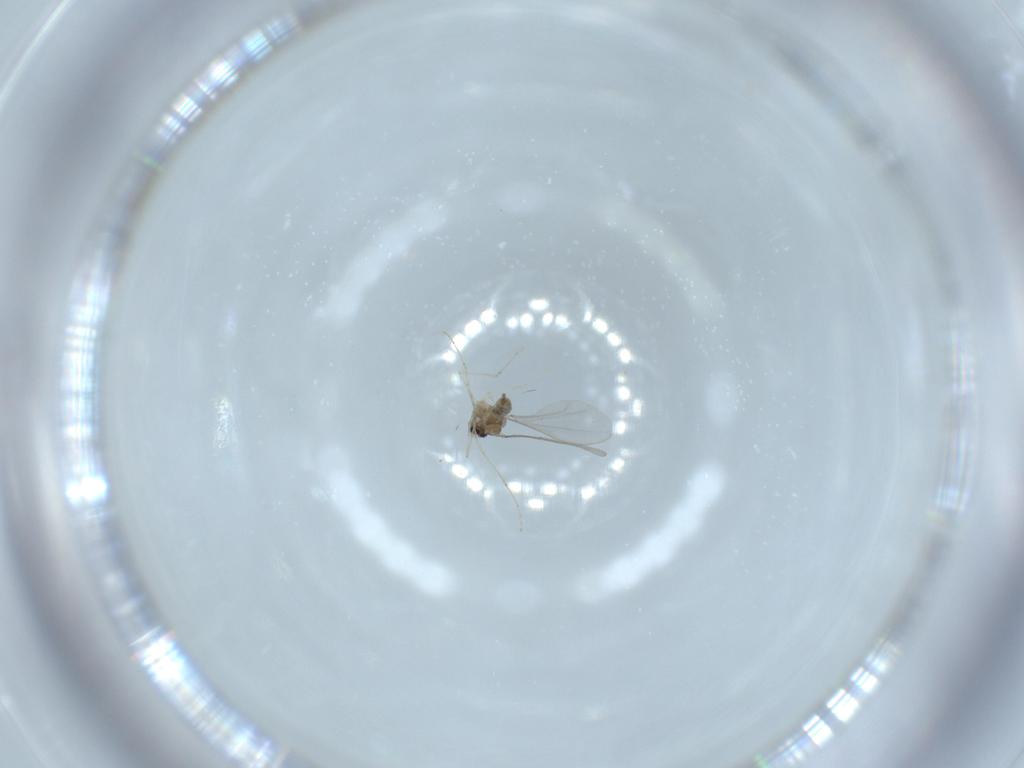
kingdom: Animalia
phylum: Arthropoda
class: Insecta
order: Diptera
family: Cecidomyiidae
